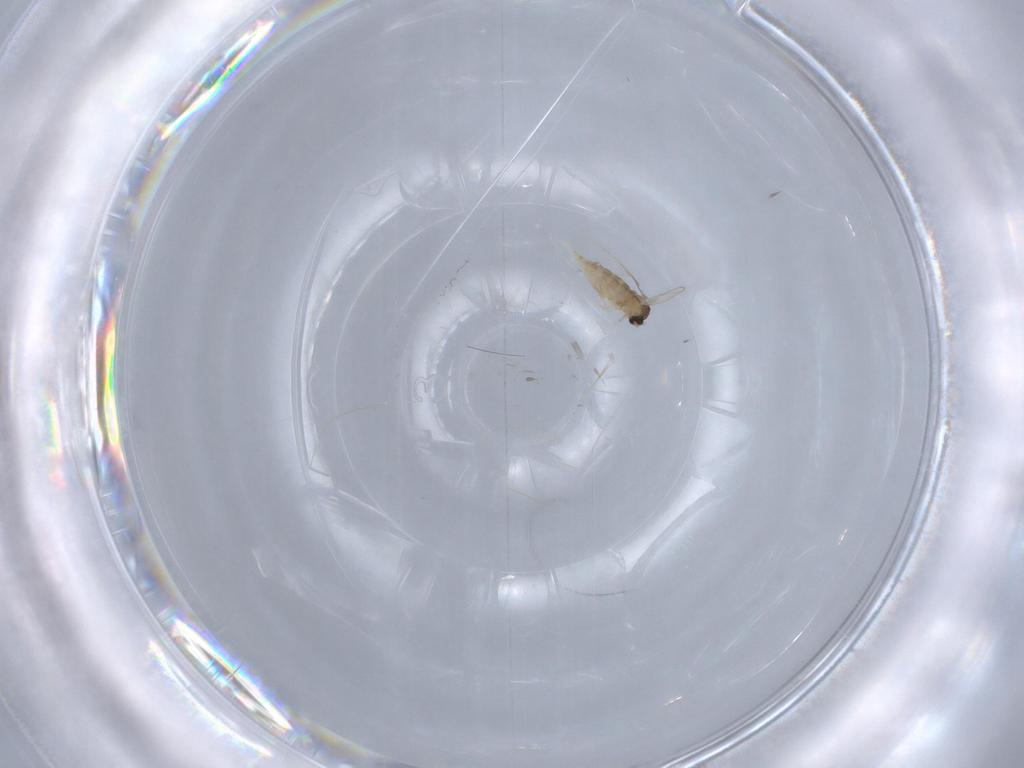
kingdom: Animalia
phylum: Arthropoda
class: Insecta
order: Diptera
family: Cecidomyiidae
